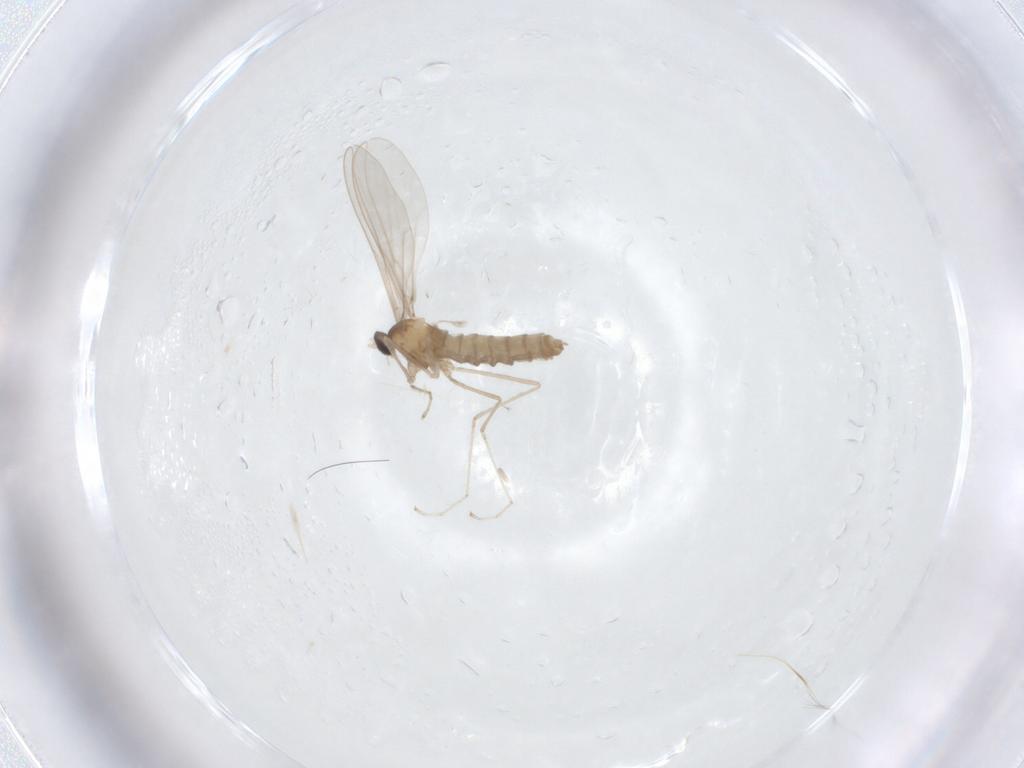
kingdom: Animalia
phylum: Arthropoda
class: Insecta
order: Diptera
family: Cecidomyiidae
